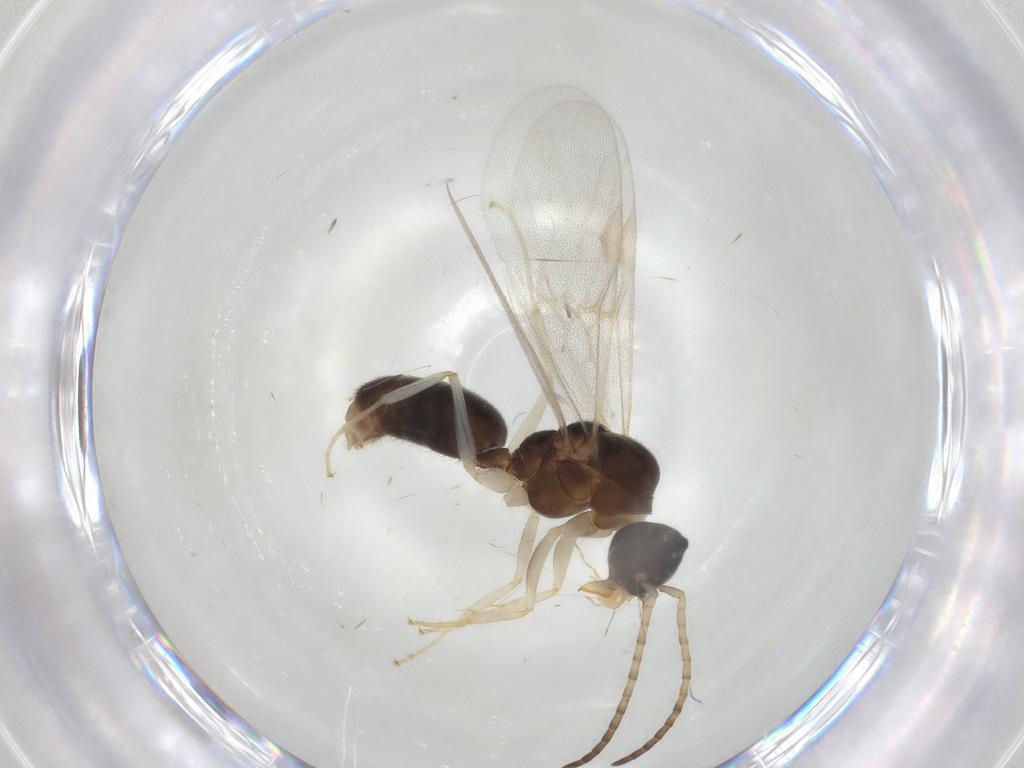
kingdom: Animalia
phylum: Arthropoda
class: Insecta
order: Hymenoptera
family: Formicidae
